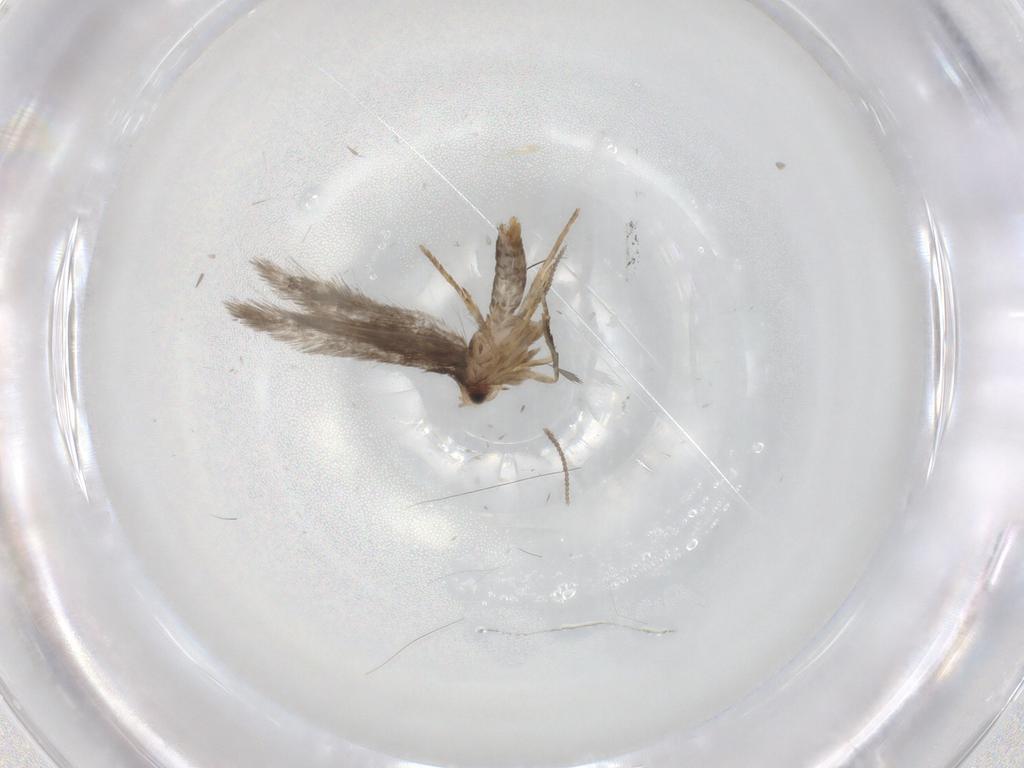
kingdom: Animalia
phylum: Arthropoda
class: Insecta
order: Lepidoptera
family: Nepticulidae
